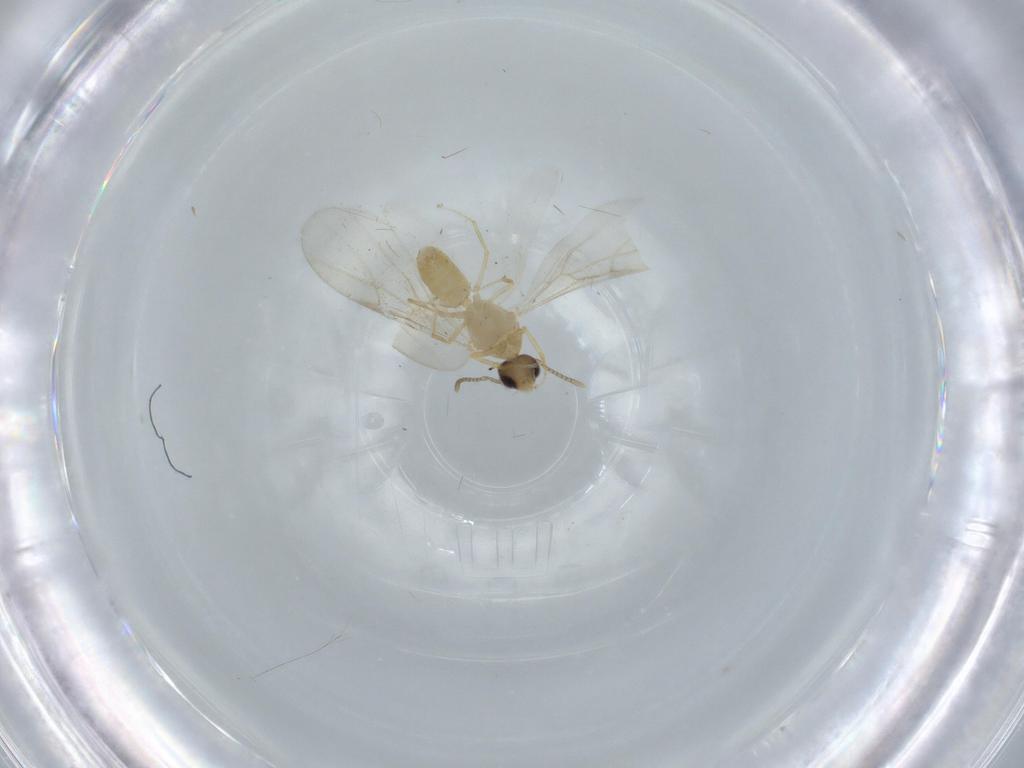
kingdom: Animalia
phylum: Arthropoda
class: Insecta
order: Hymenoptera
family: Formicidae
